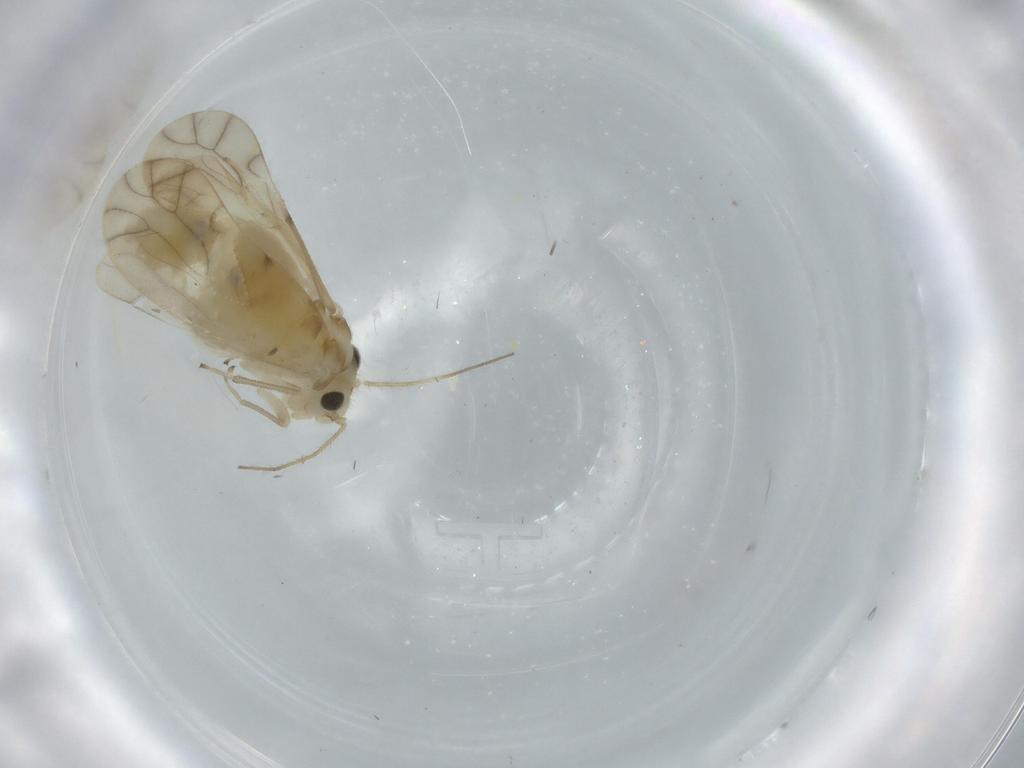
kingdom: Animalia
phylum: Arthropoda
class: Insecta
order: Psocodea
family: Caeciliusidae
